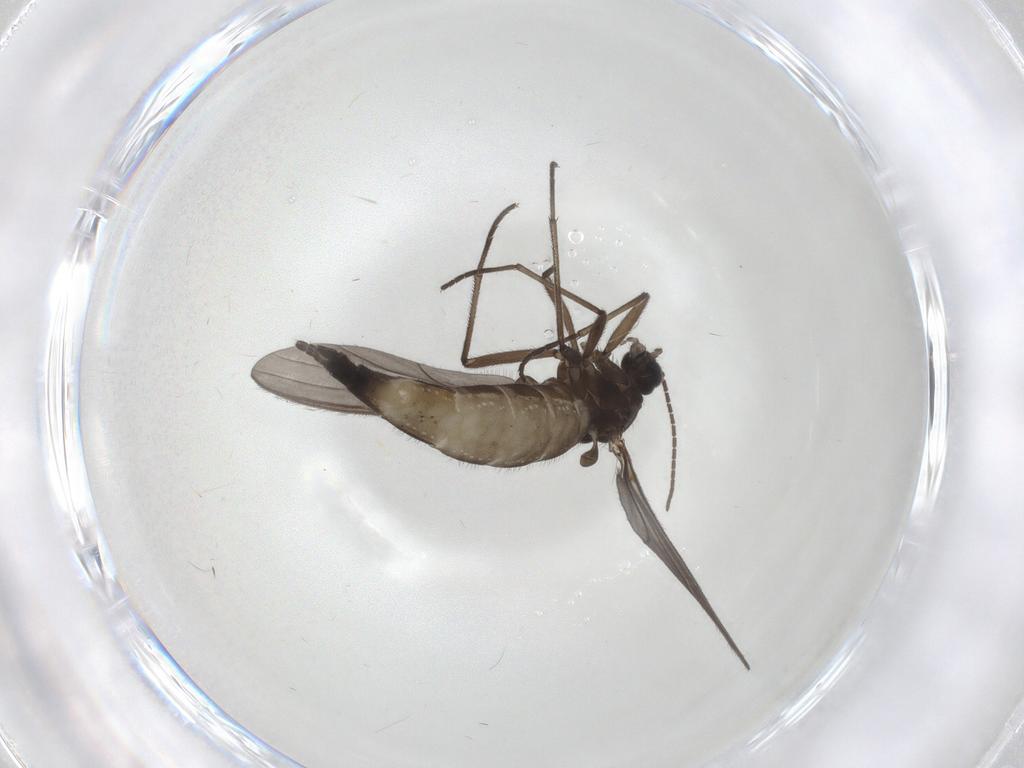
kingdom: Animalia
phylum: Arthropoda
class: Insecta
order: Diptera
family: Sciaridae
